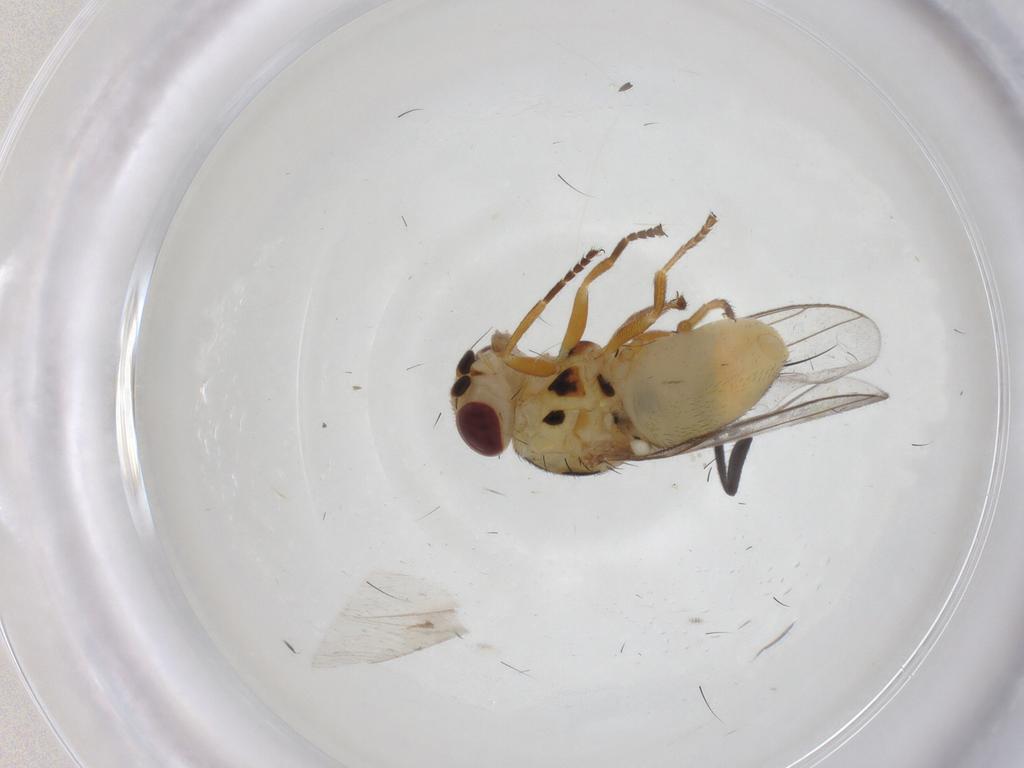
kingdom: Animalia
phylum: Arthropoda
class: Insecta
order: Diptera
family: Chloropidae
